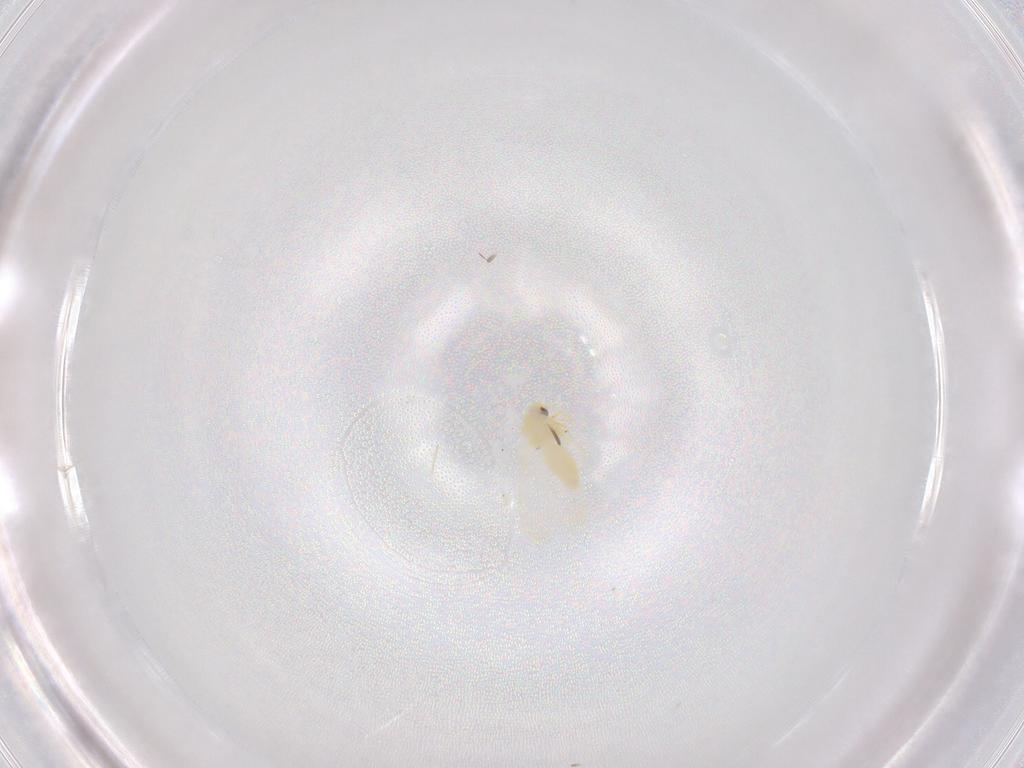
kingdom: Animalia
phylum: Arthropoda
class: Insecta
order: Hemiptera
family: Aleyrodidae
